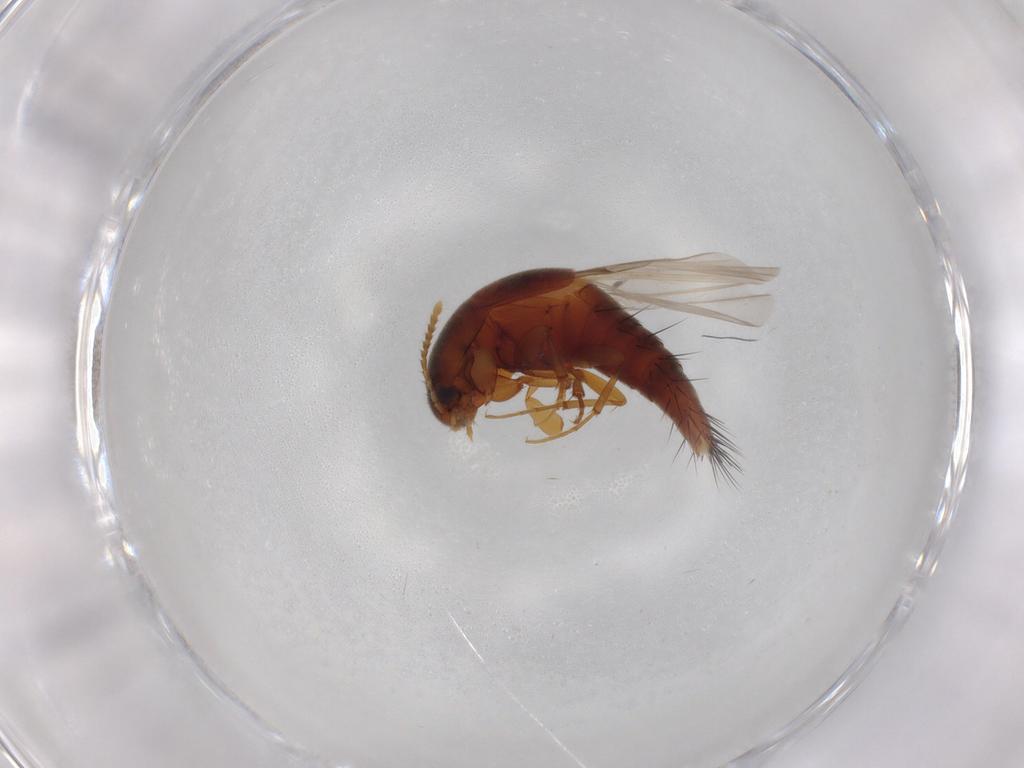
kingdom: Animalia
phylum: Arthropoda
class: Insecta
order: Coleoptera
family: Staphylinidae
